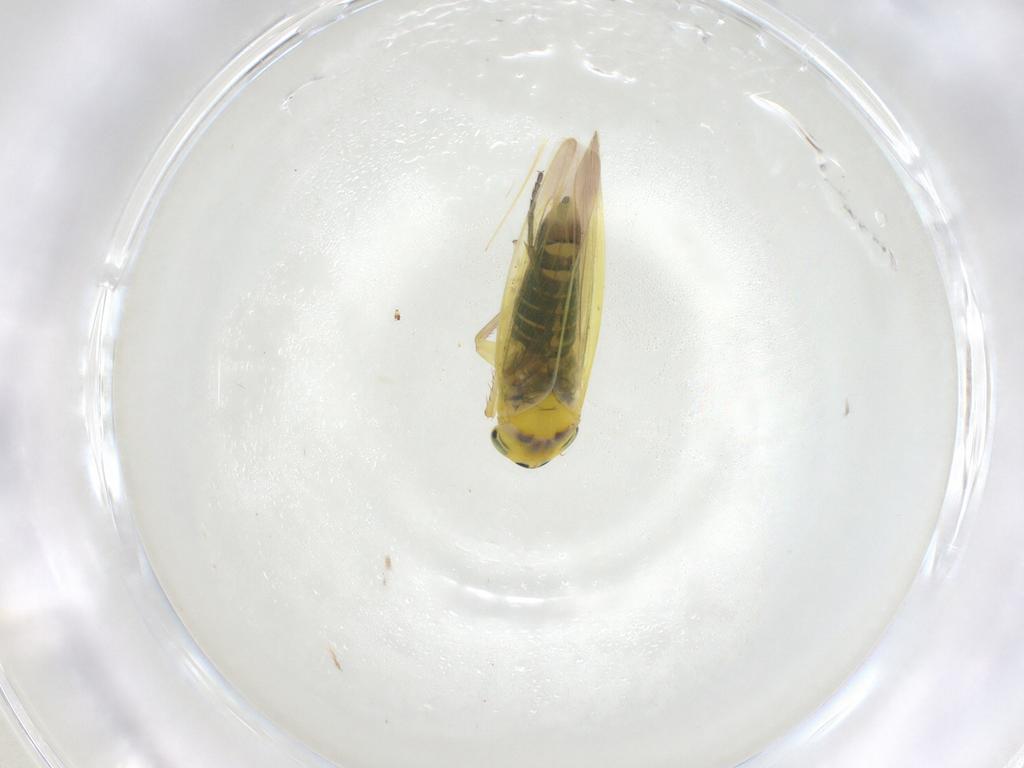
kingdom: Animalia
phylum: Arthropoda
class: Insecta
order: Hemiptera
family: Cicadellidae
